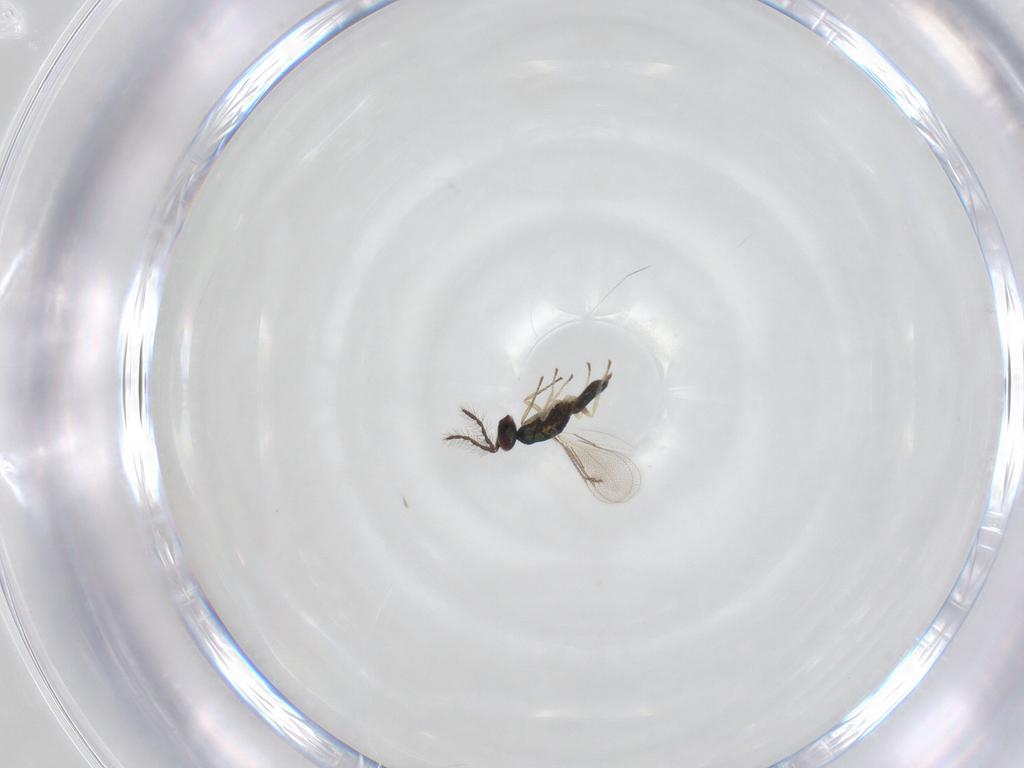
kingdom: Animalia
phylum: Arthropoda
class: Insecta
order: Hymenoptera
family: Eulophidae
